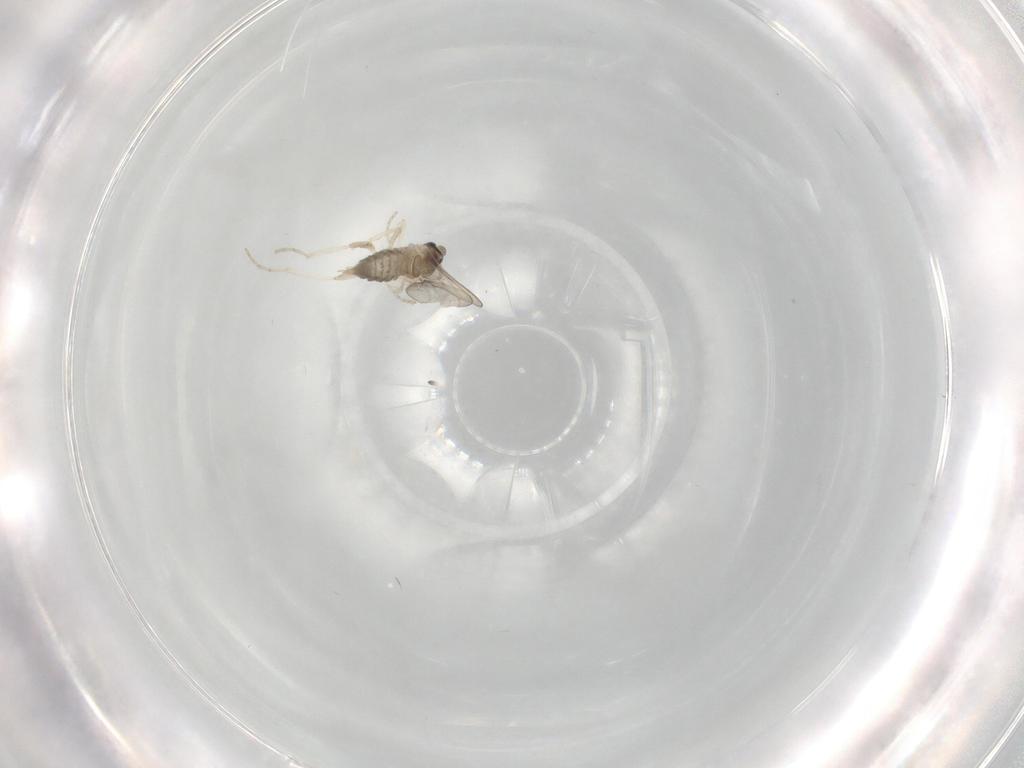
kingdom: Animalia
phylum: Arthropoda
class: Insecta
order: Diptera
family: Cecidomyiidae
